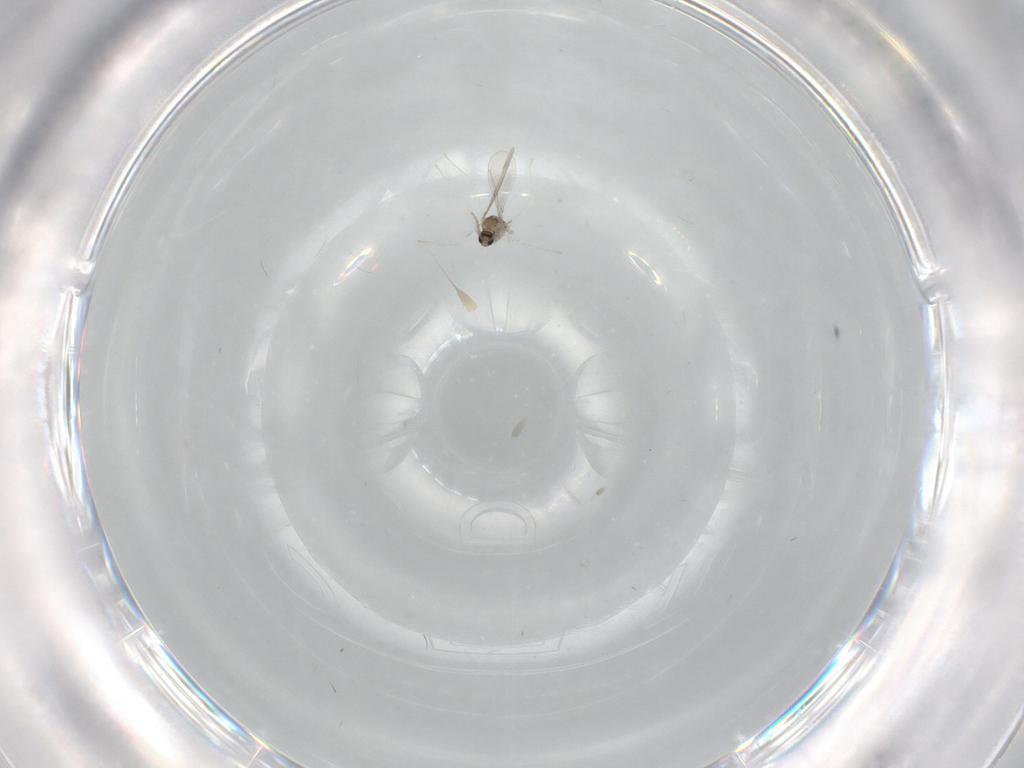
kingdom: Animalia
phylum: Arthropoda
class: Insecta
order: Diptera
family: Cecidomyiidae
